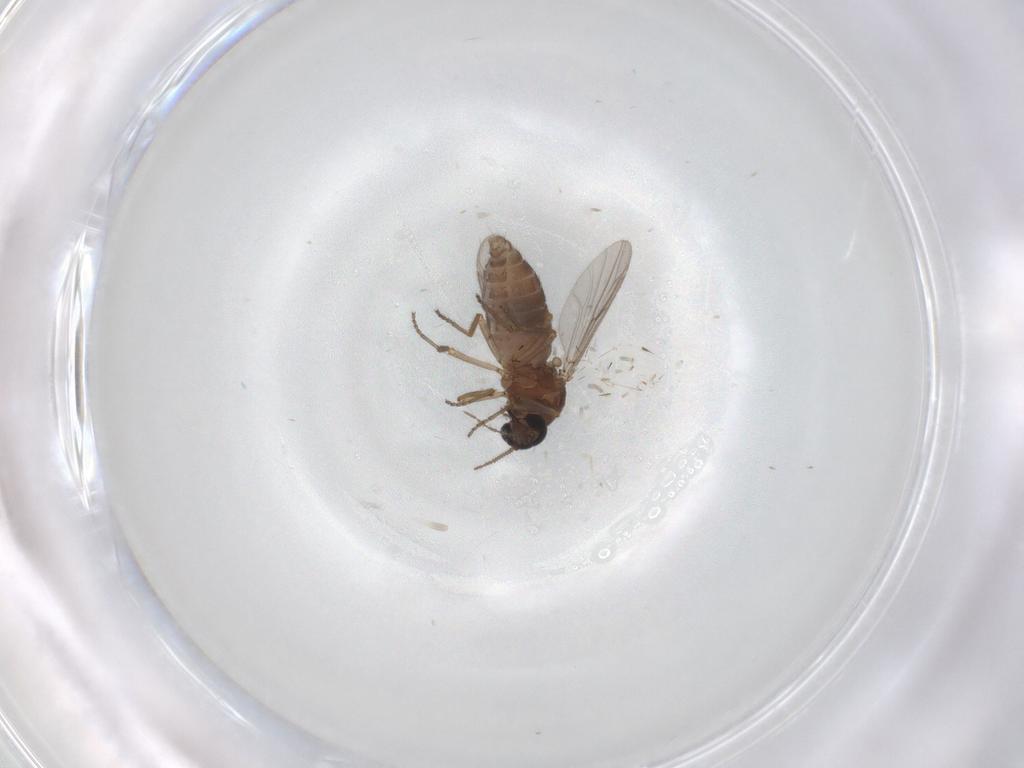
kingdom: Animalia
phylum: Arthropoda
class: Insecta
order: Diptera
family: Ceratopogonidae
